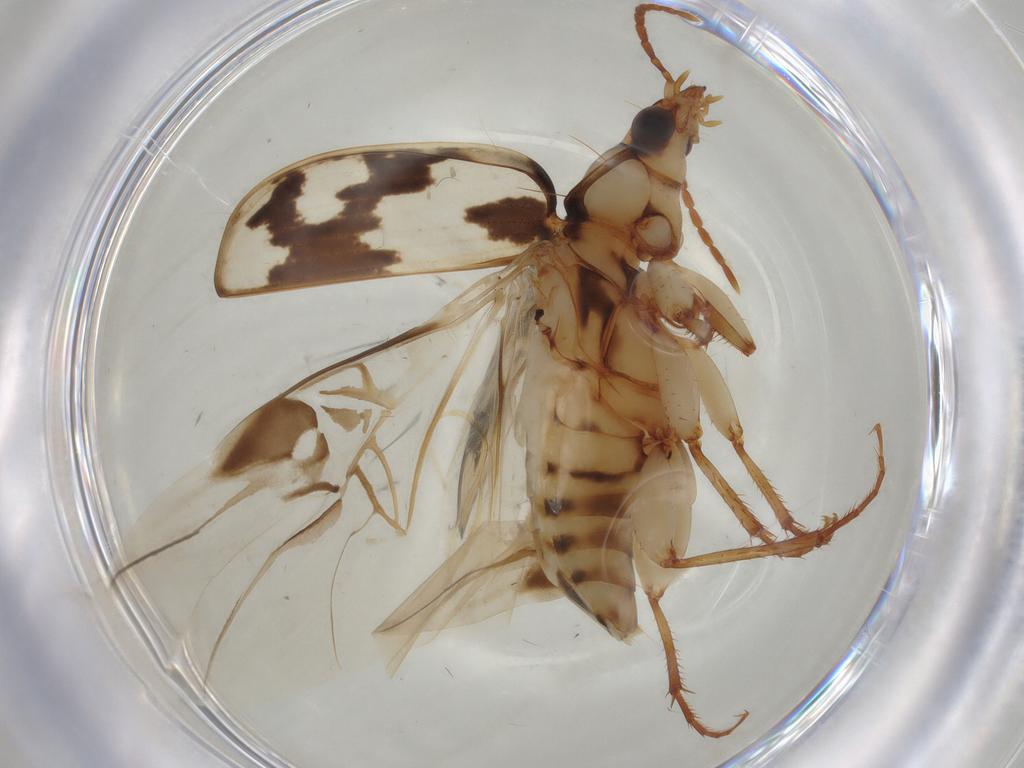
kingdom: Animalia
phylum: Arthropoda
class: Insecta
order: Coleoptera
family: Carabidae
